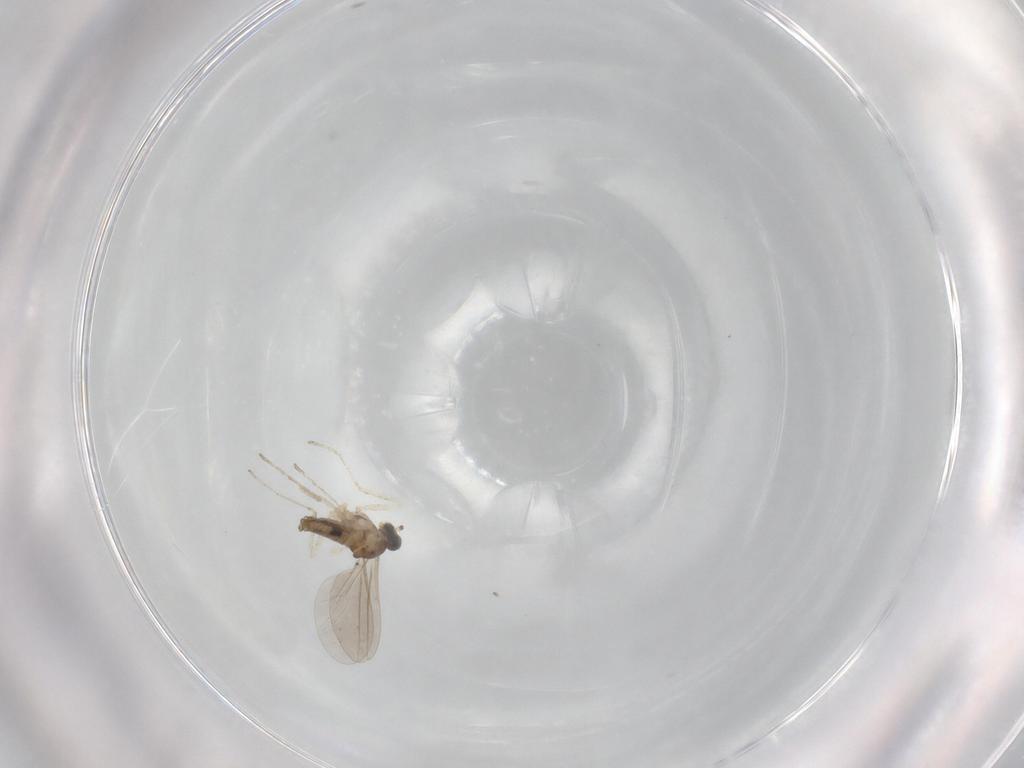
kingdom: Animalia
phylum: Arthropoda
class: Insecta
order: Diptera
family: Cecidomyiidae
